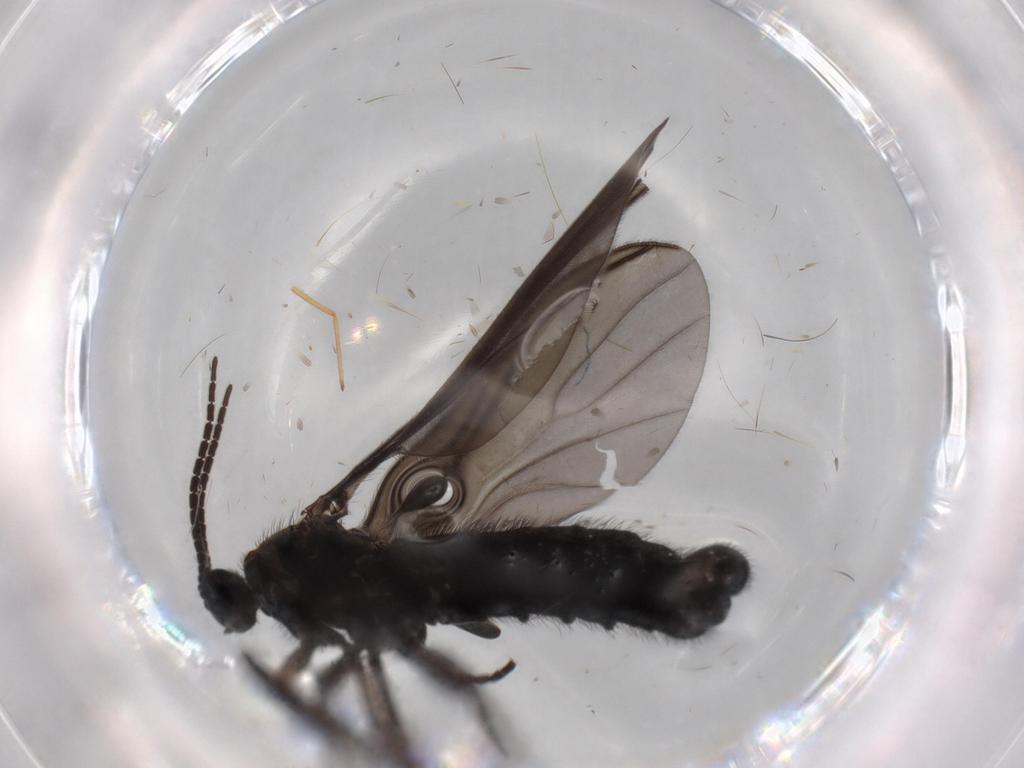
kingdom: Animalia
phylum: Arthropoda
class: Insecta
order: Diptera
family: Sciaridae
